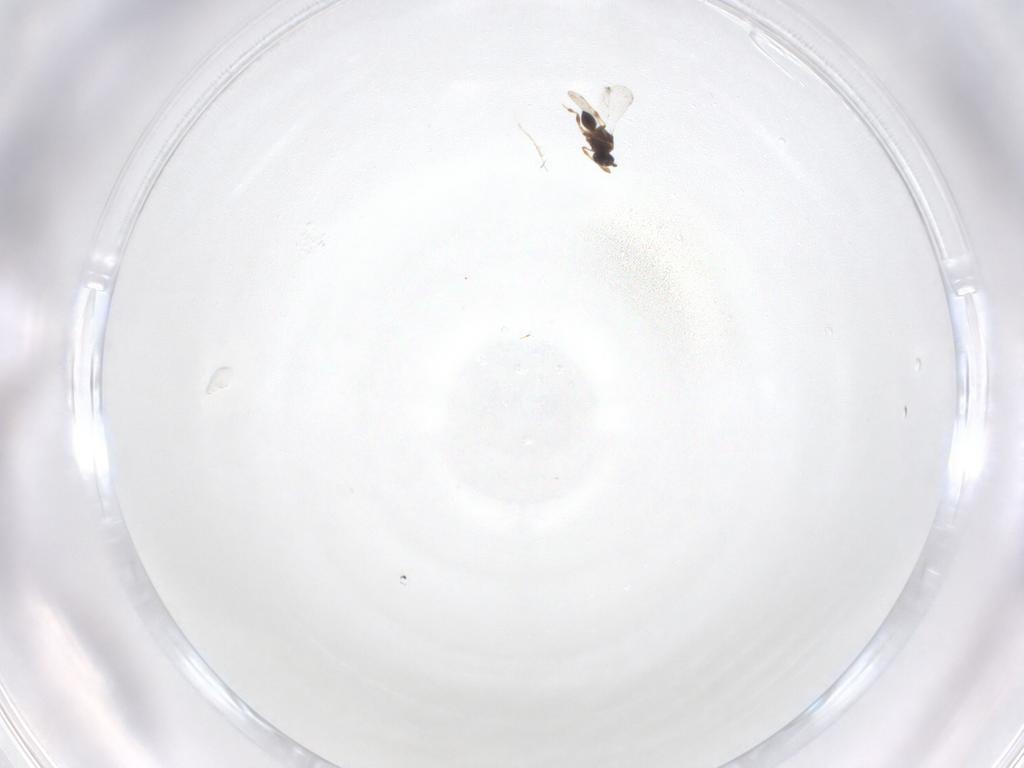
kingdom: Animalia
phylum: Arthropoda
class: Insecta
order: Hymenoptera
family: Platygastridae
